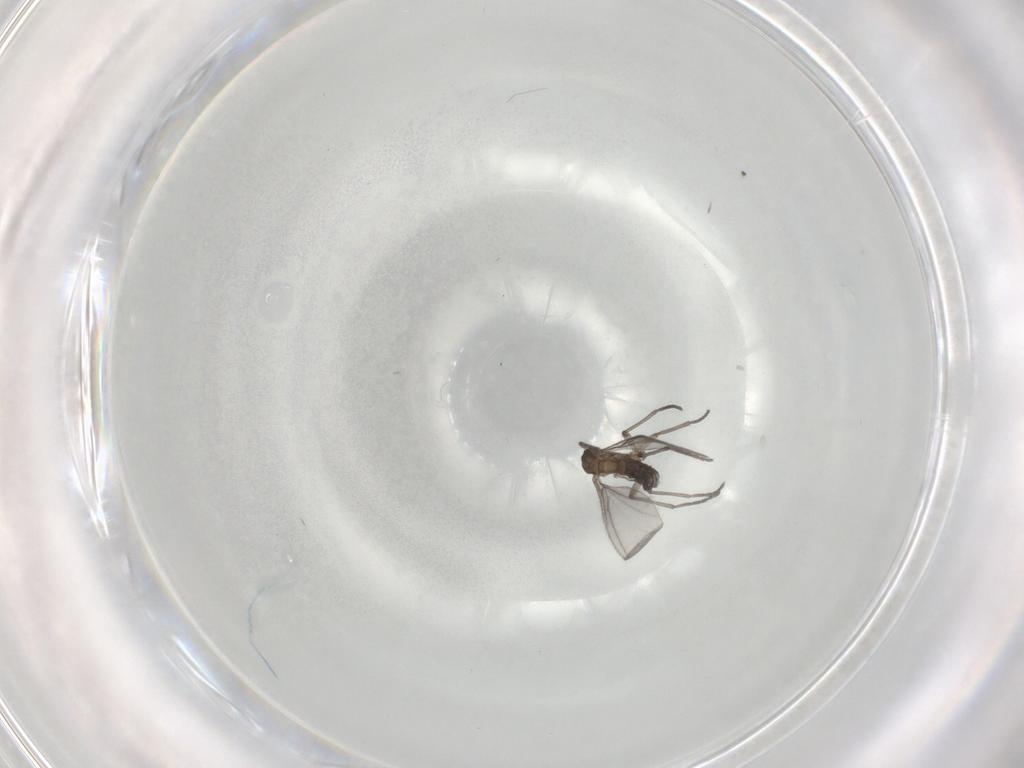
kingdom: Animalia
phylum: Arthropoda
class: Insecta
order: Diptera
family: Sciaridae
